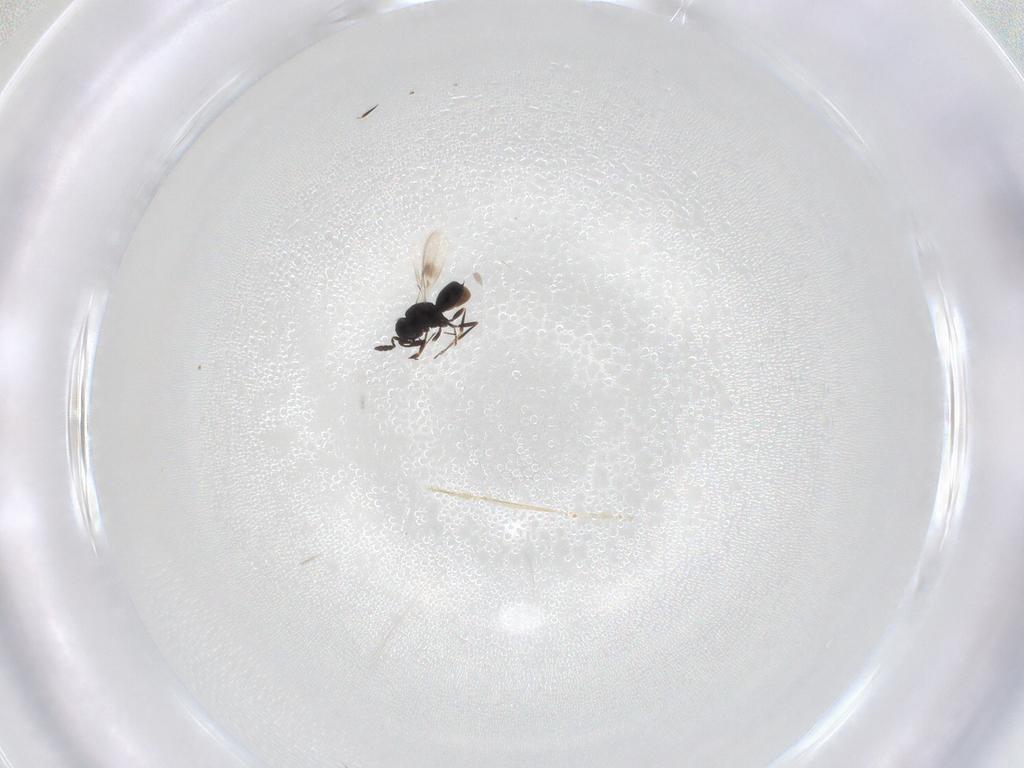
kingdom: Animalia
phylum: Arthropoda
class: Insecta
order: Hymenoptera
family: Scelionidae
